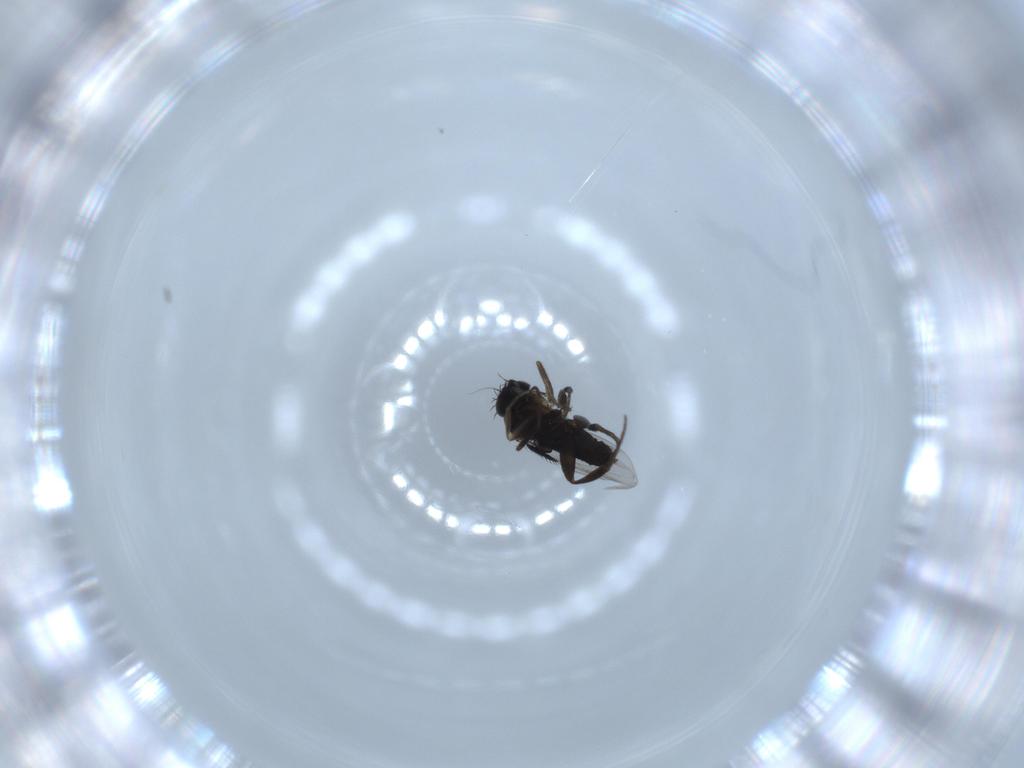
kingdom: Animalia
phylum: Arthropoda
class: Insecta
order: Diptera
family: Phoridae
